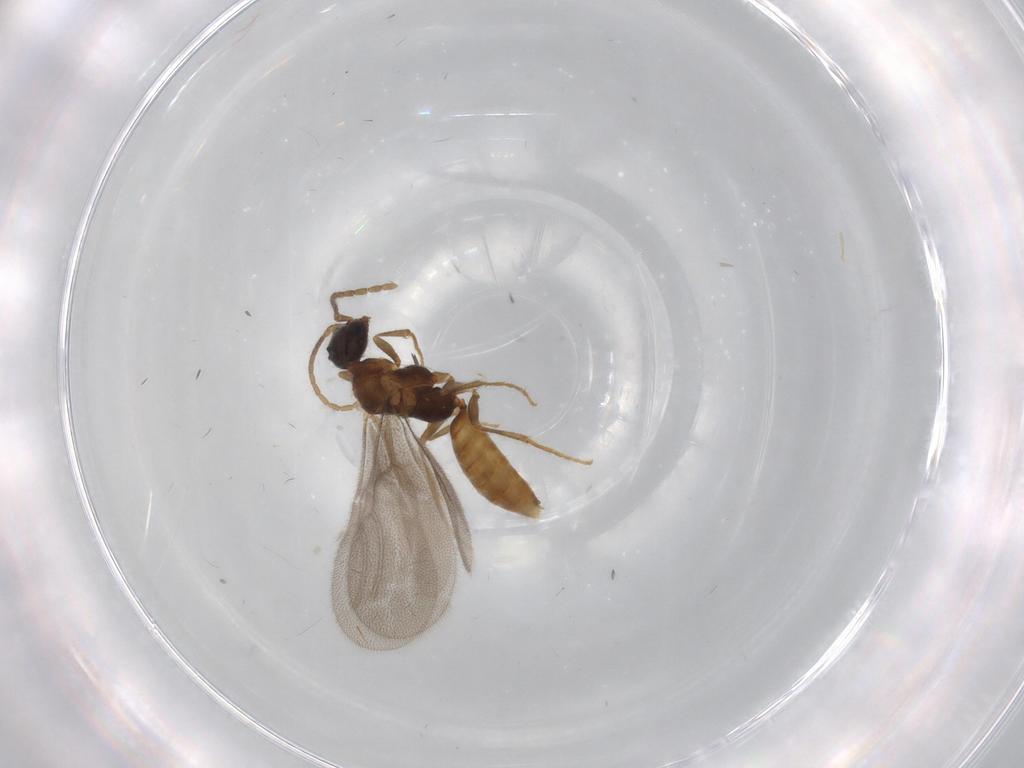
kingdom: Animalia
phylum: Arthropoda
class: Insecta
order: Hymenoptera
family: Bethylidae
